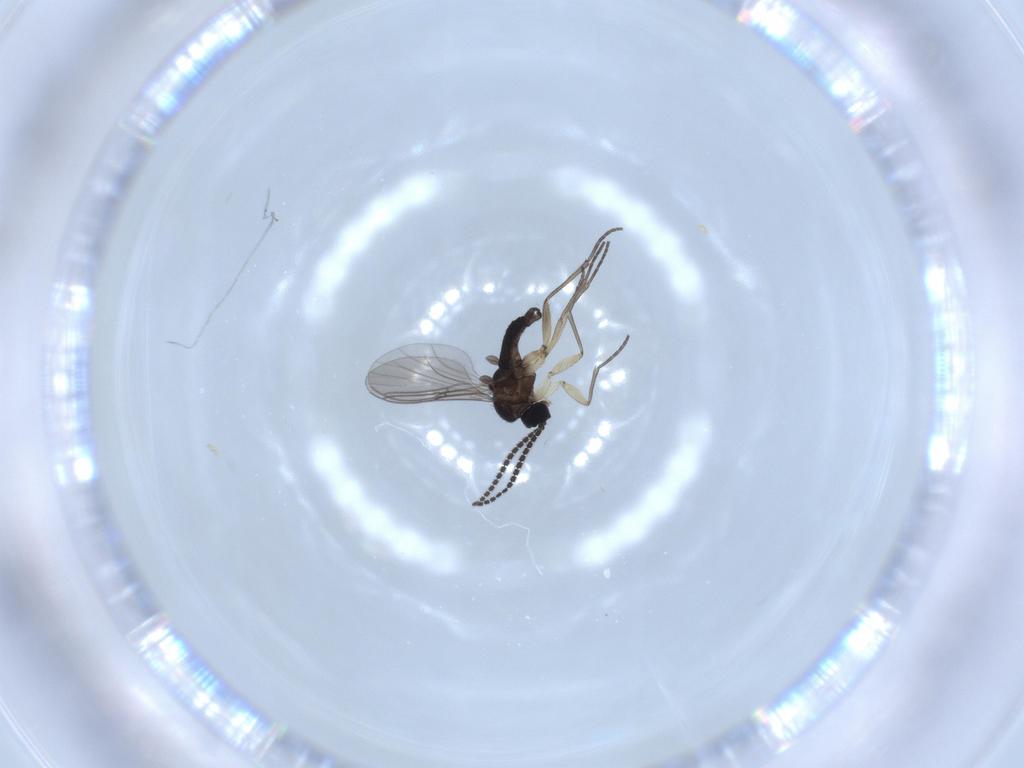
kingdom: Animalia
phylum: Arthropoda
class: Insecta
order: Diptera
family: Sciaridae
